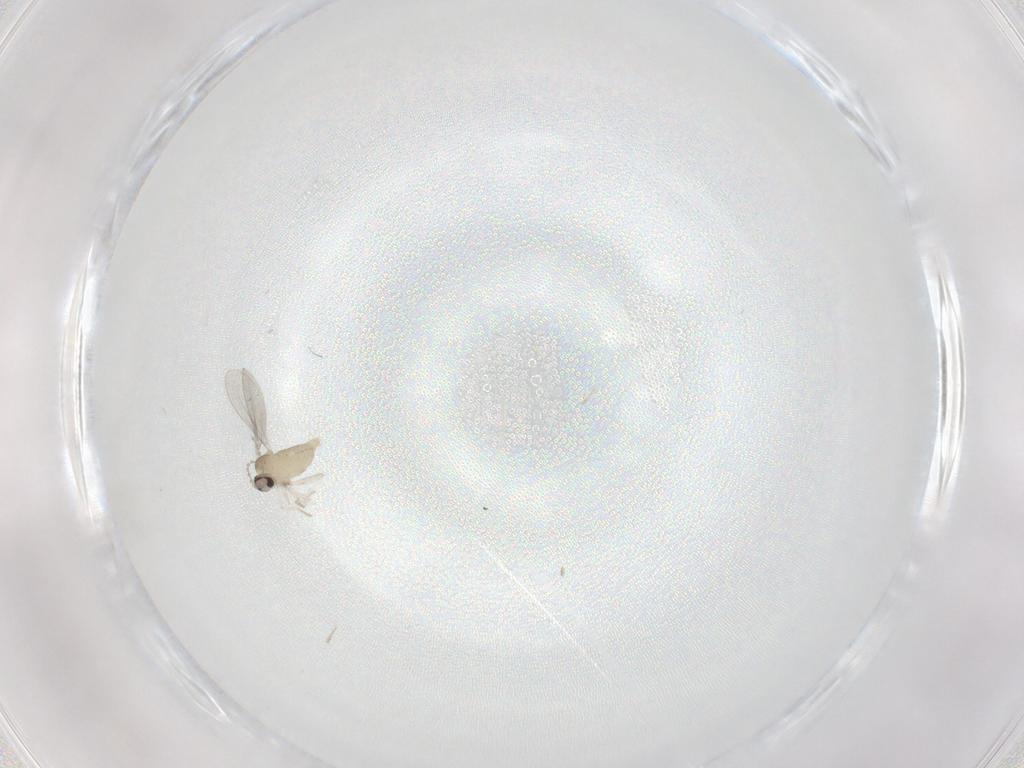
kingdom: Animalia
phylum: Arthropoda
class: Insecta
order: Diptera
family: Cecidomyiidae
